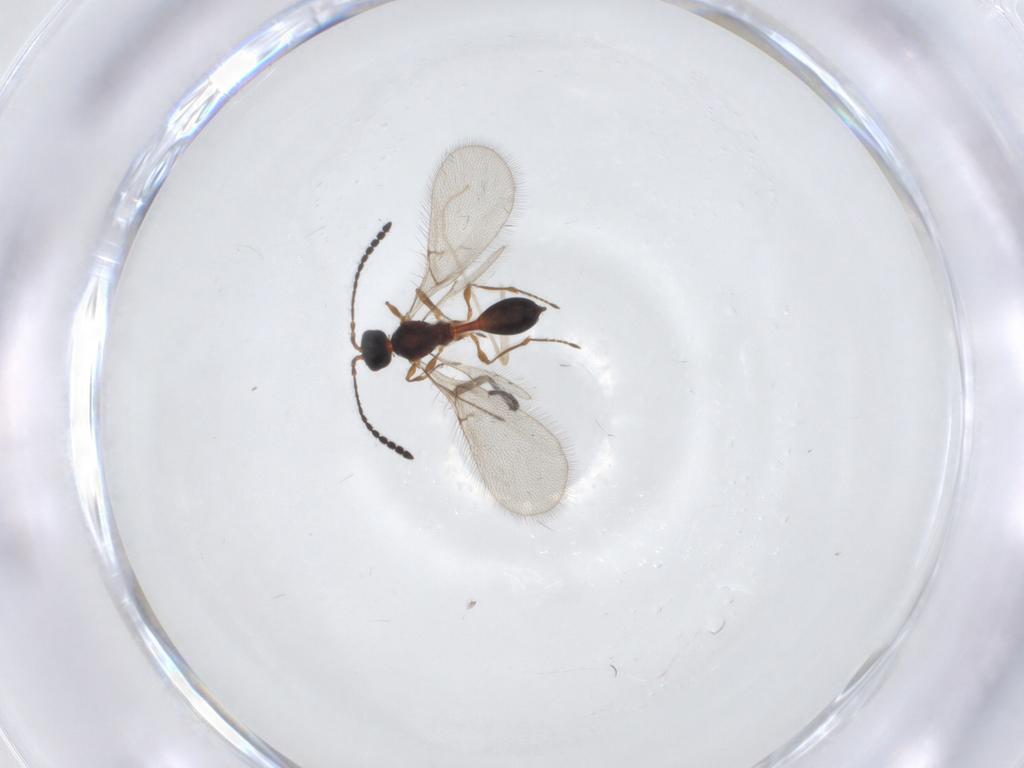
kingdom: Animalia
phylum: Arthropoda
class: Insecta
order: Hymenoptera
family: Diapriidae
